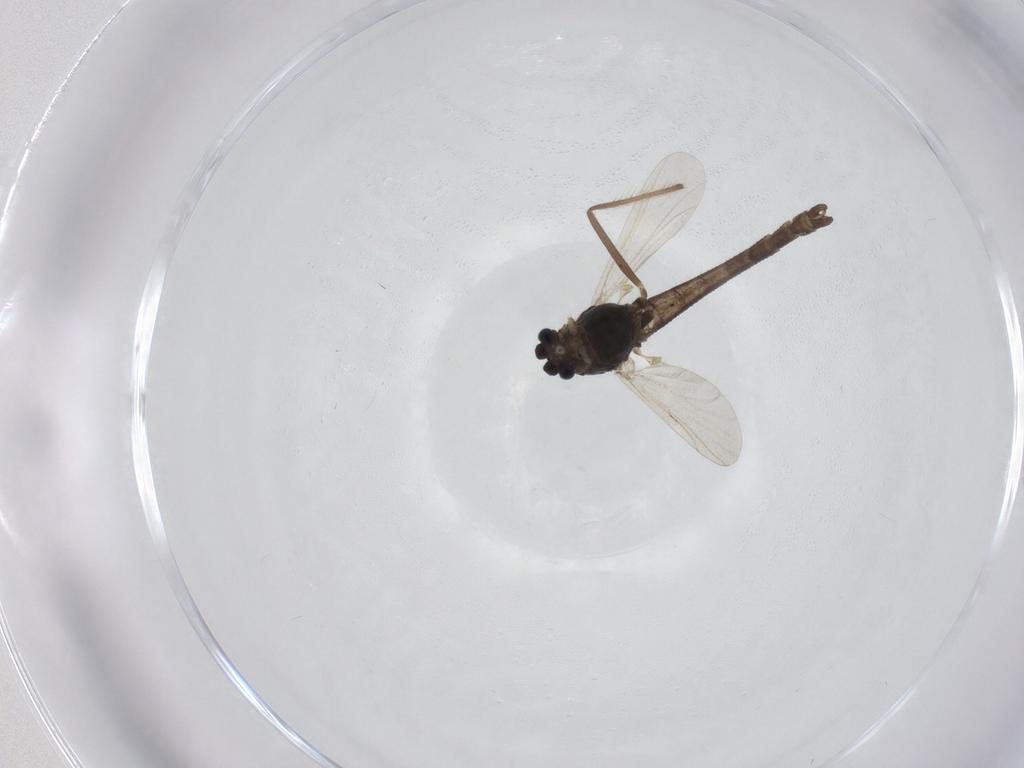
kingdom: Animalia
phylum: Arthropoda
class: Insecta
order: Diptera
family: Chironomidae
